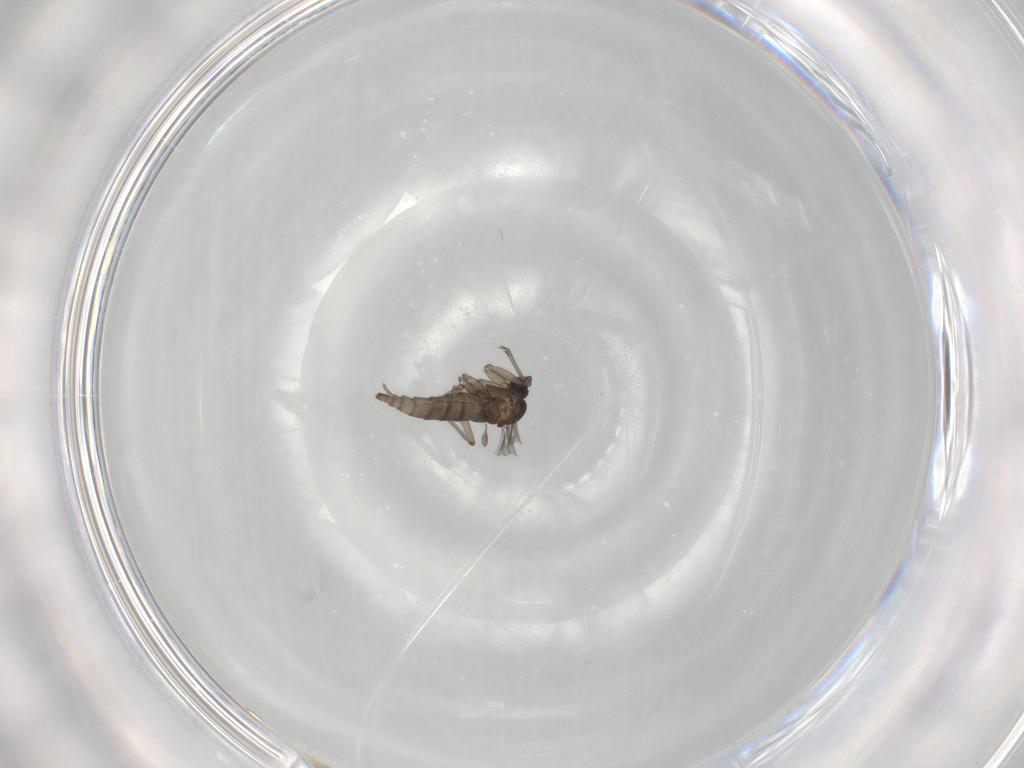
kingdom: Animalia
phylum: Arthropoda
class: Insecta
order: Diptera
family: Sciaridae
